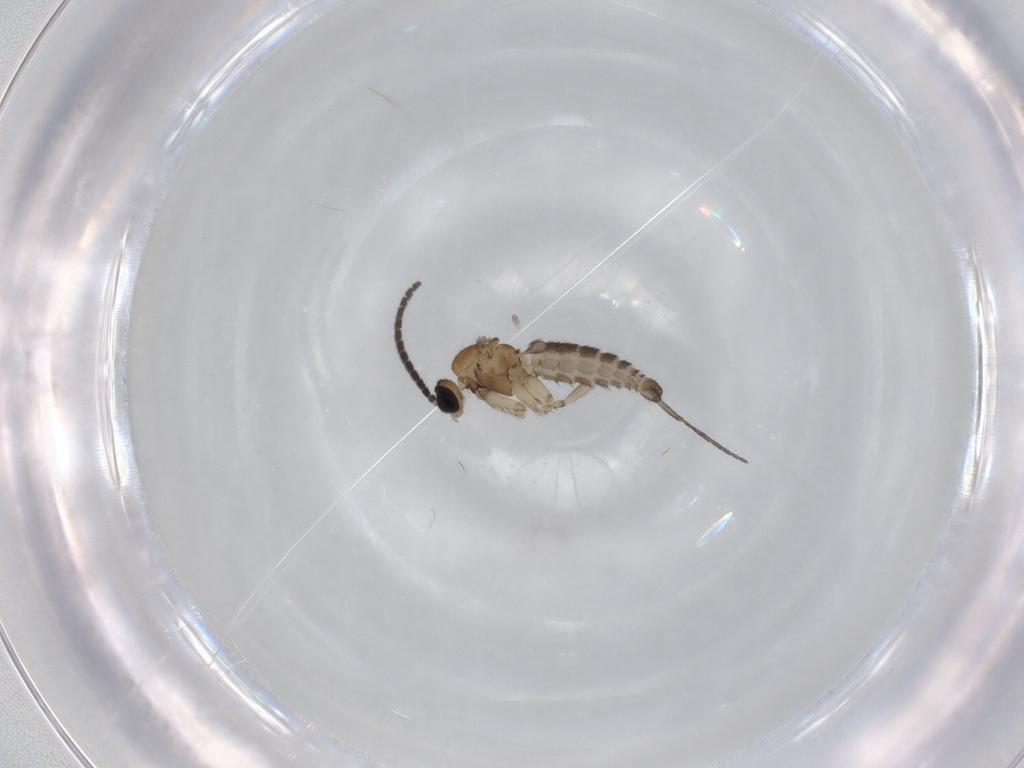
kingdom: Animalia
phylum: Arthropoda
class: Insecta
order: Diptera
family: Sciaridae
